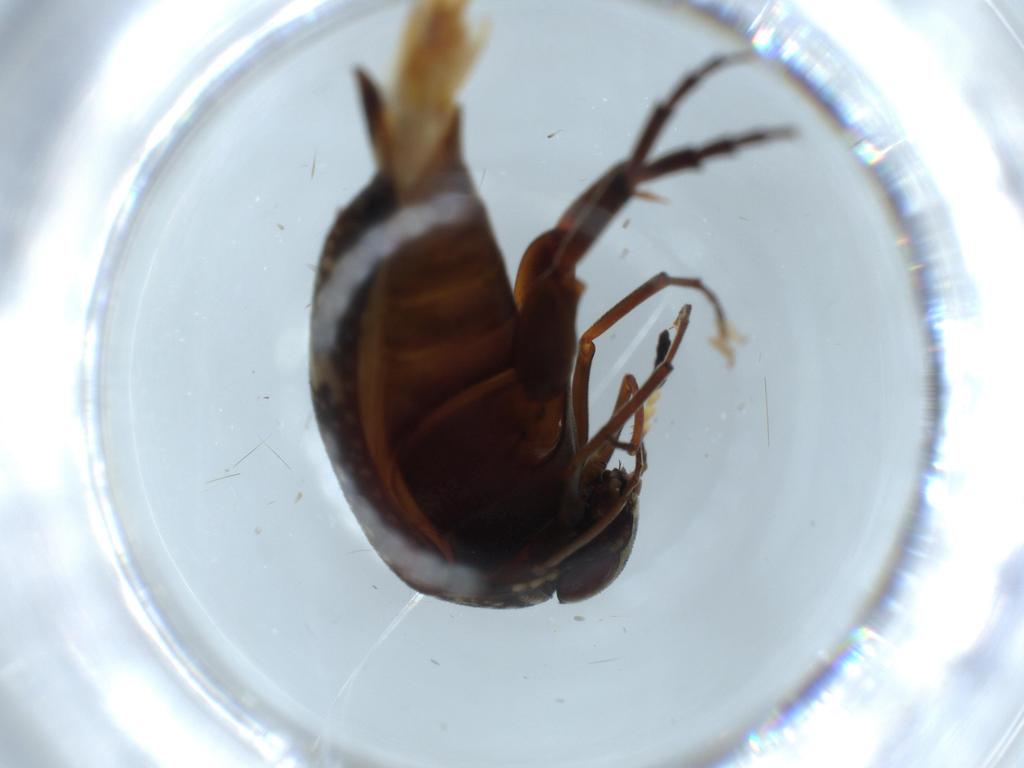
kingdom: Animalia
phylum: Arthropoda
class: Insecta
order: Coleoptera
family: Curculionidae
